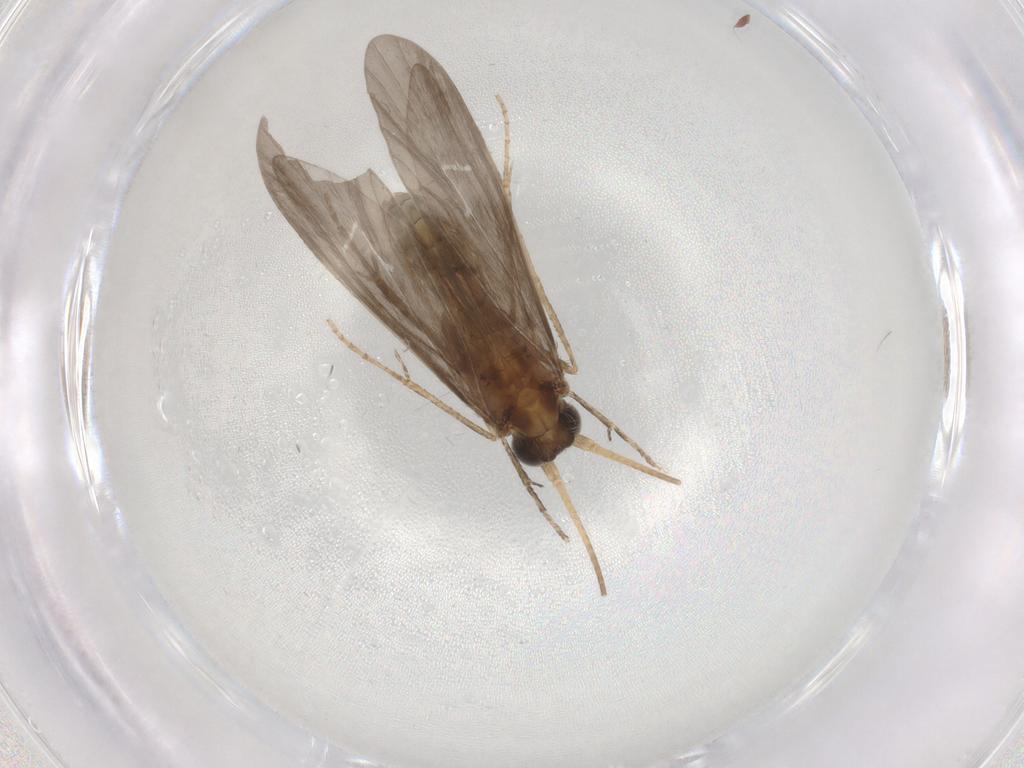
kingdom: Animalia
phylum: Arthropoda
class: Insecta
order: Trichoptera
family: Helicopsychidae
